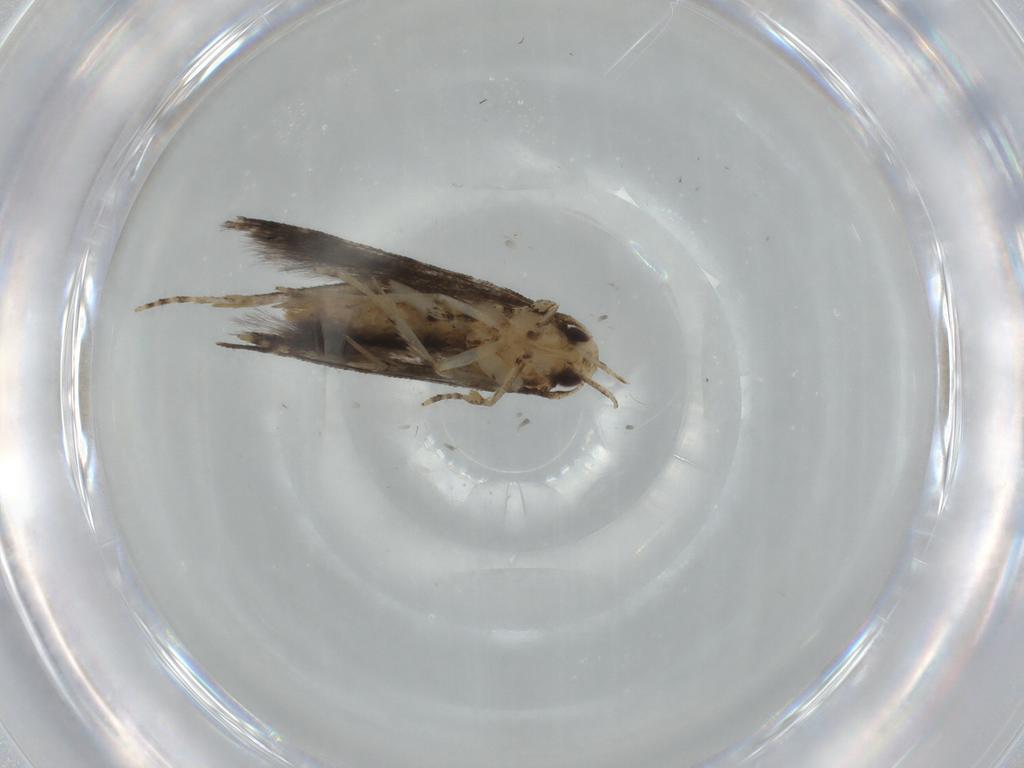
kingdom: Animalia
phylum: Arthropoda
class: Insecta
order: Lepidoptera
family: Cosmopterigidae
